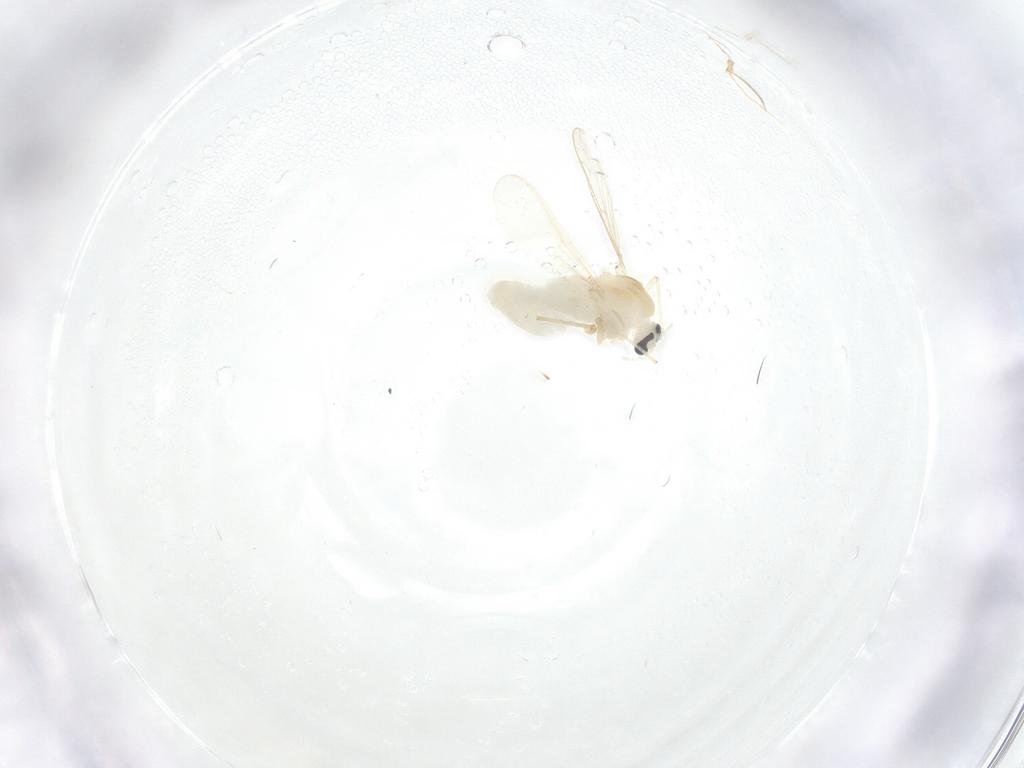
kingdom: Animalia
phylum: Arthropoda
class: Insecta
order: Diptera
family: Chironomidae
